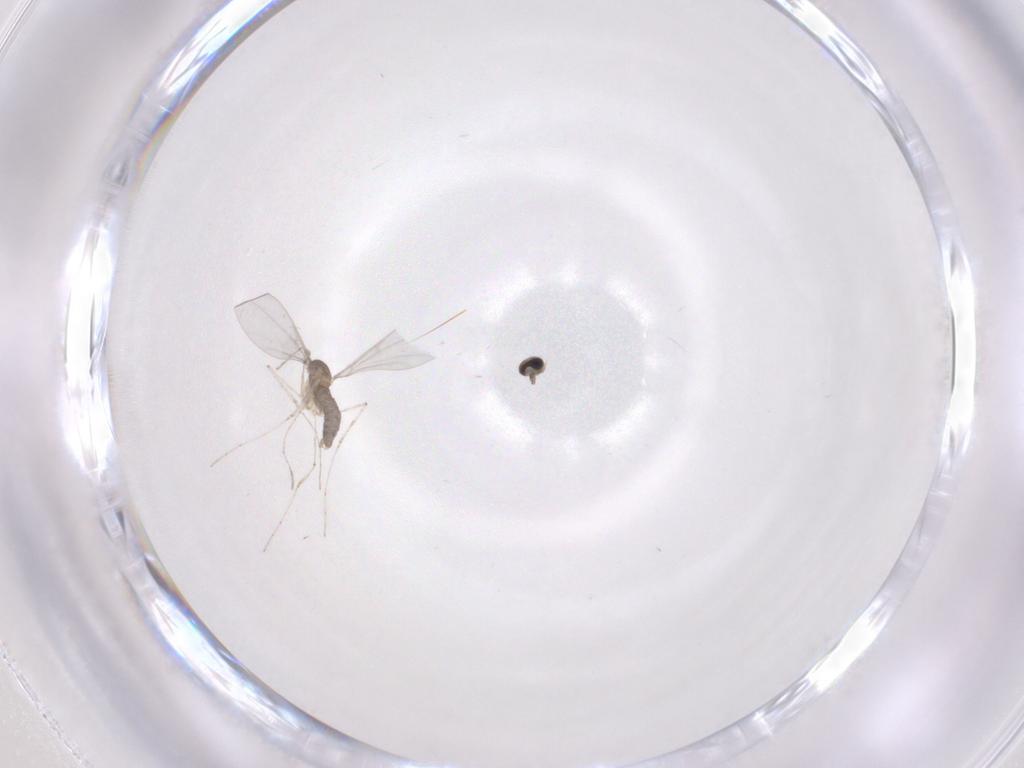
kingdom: Animalia
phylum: Arthropoda
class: Insecta
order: Diptera
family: Cecidomyiidae
